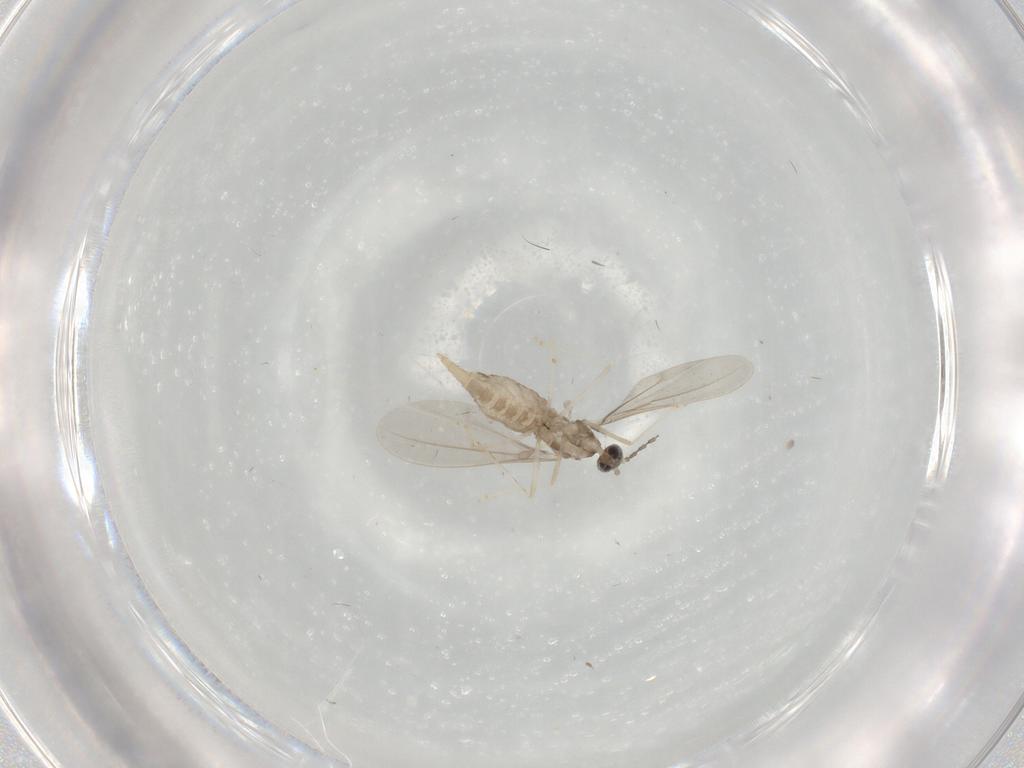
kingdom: Animalia
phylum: Arthropoda
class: Insecta
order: Diptera
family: Cecidomyiidae
